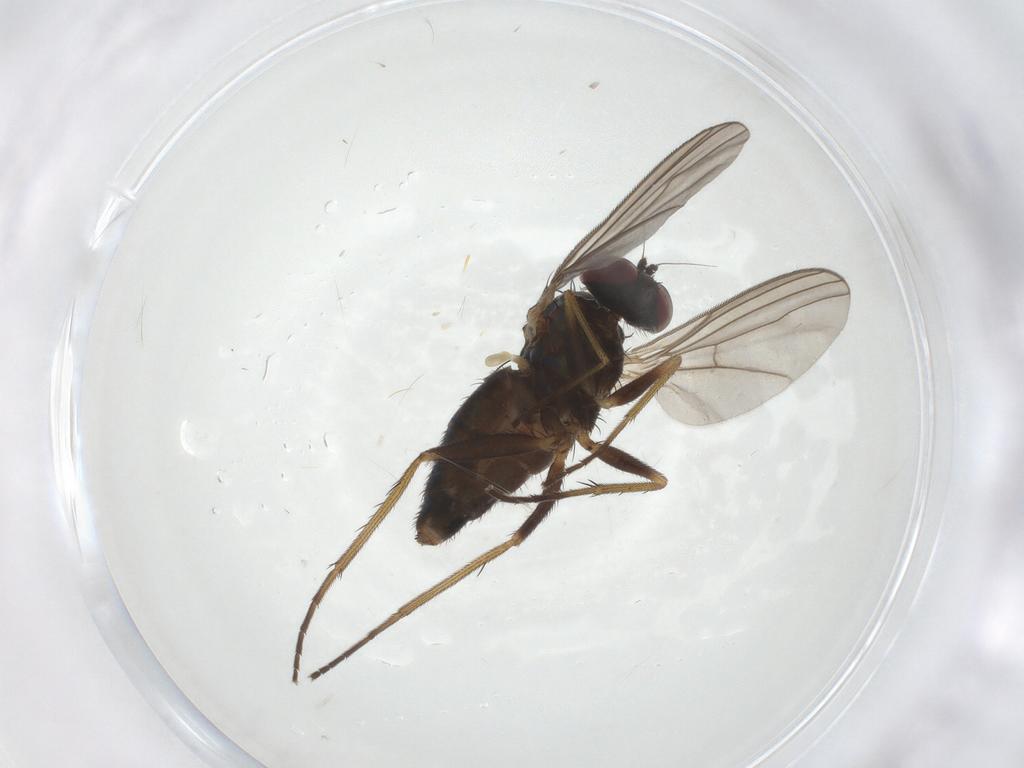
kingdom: Animalia
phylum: Arthropoda
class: Insecta
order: Diptera
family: Dolichopodidae
